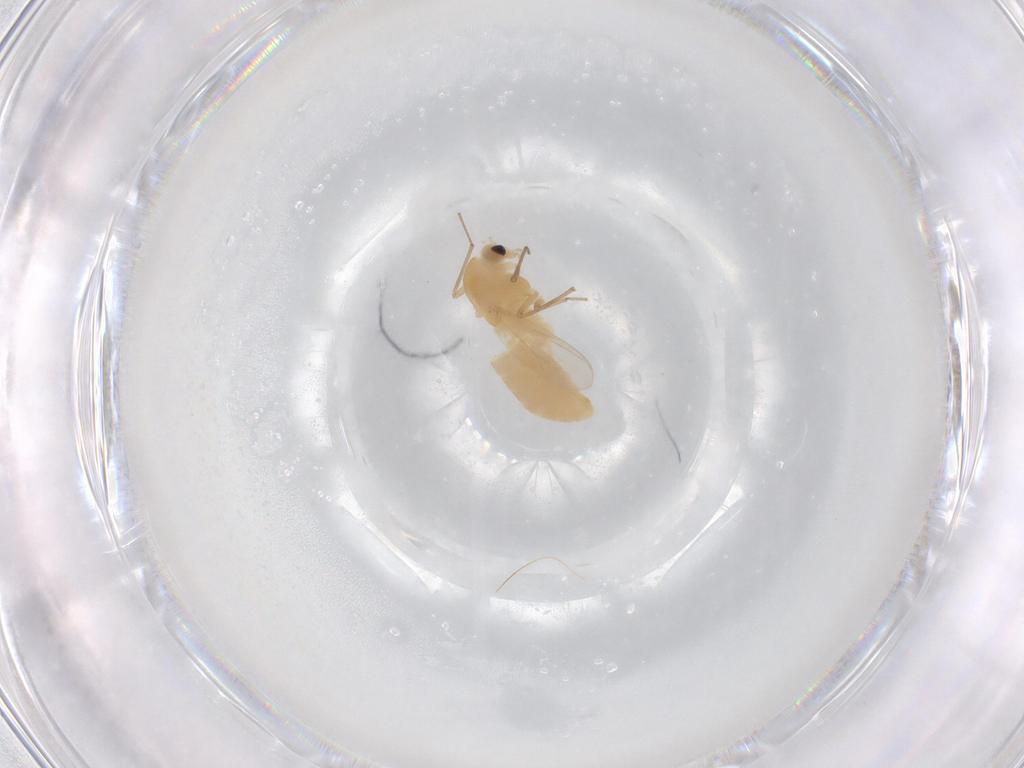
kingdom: Animalia
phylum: Arthropoda
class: Insecta
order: Diptera
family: Chironomidae
